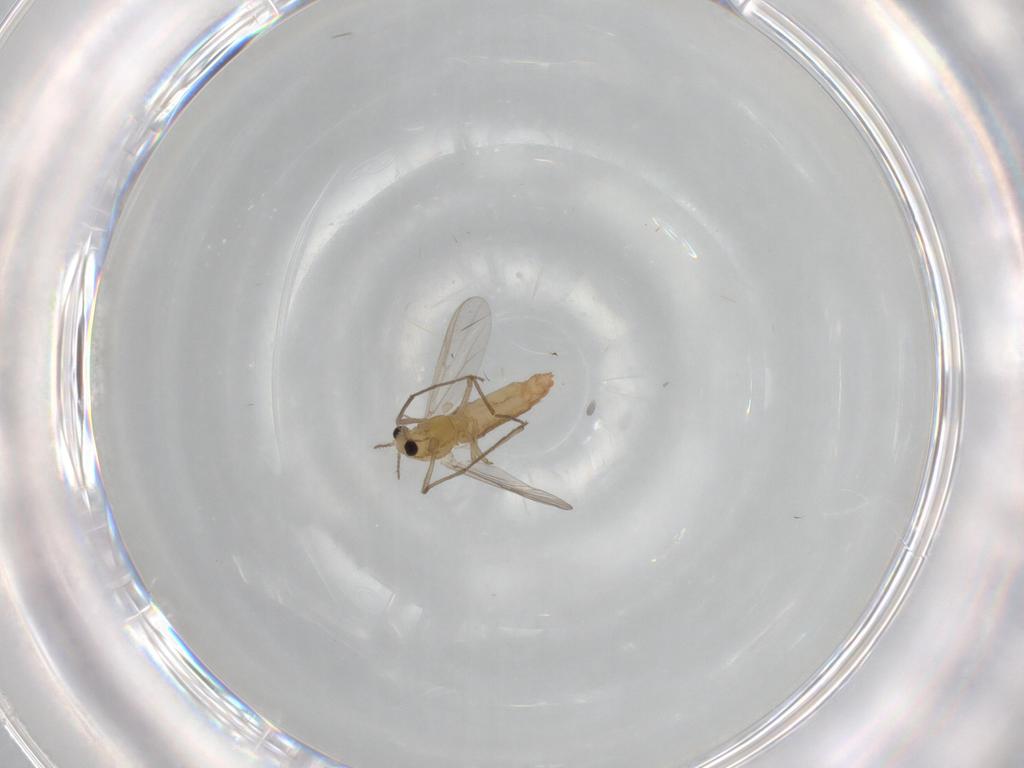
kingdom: Animalia
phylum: Arthropoda
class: Insecta
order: Diptera
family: Chironomidae
